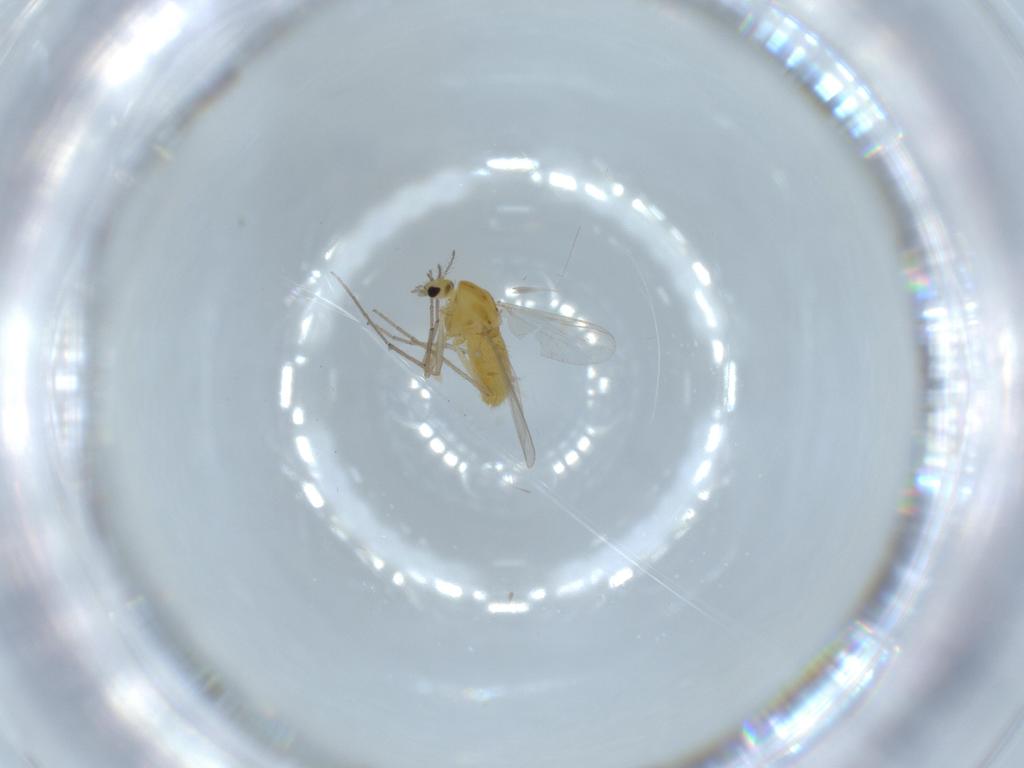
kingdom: Animalia
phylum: Arthropoda
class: Insecta
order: Diptera
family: Chironomidae
